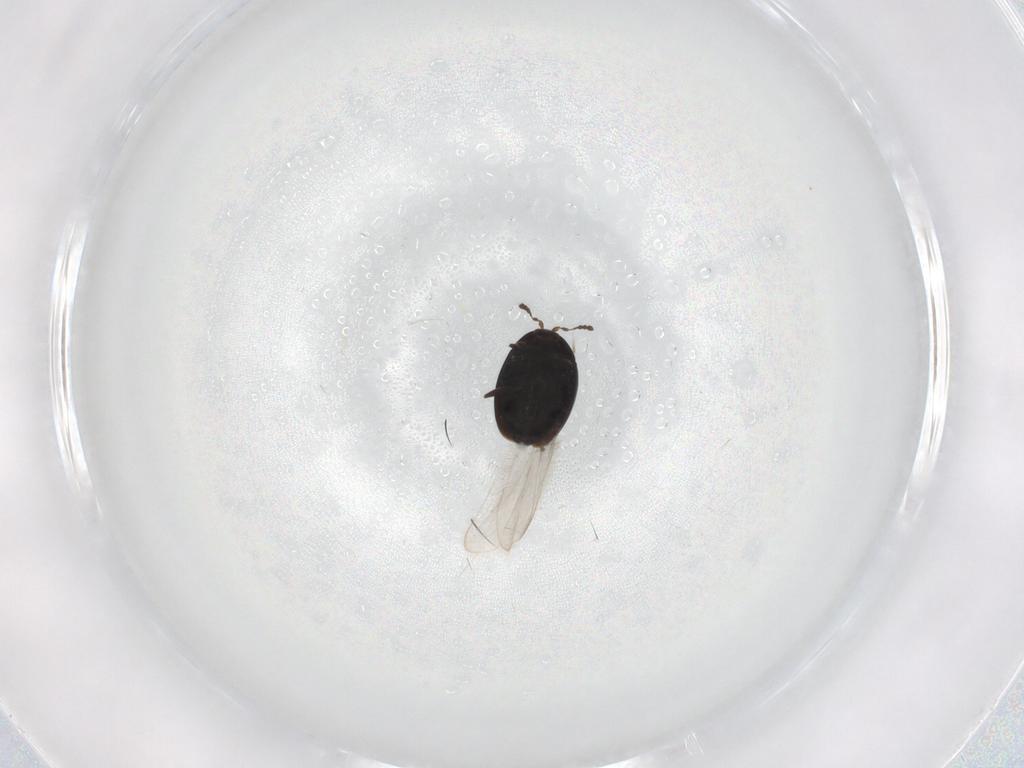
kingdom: Animalia
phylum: Arthropoda
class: Insecta
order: Coleoptera
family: Corylophidae
